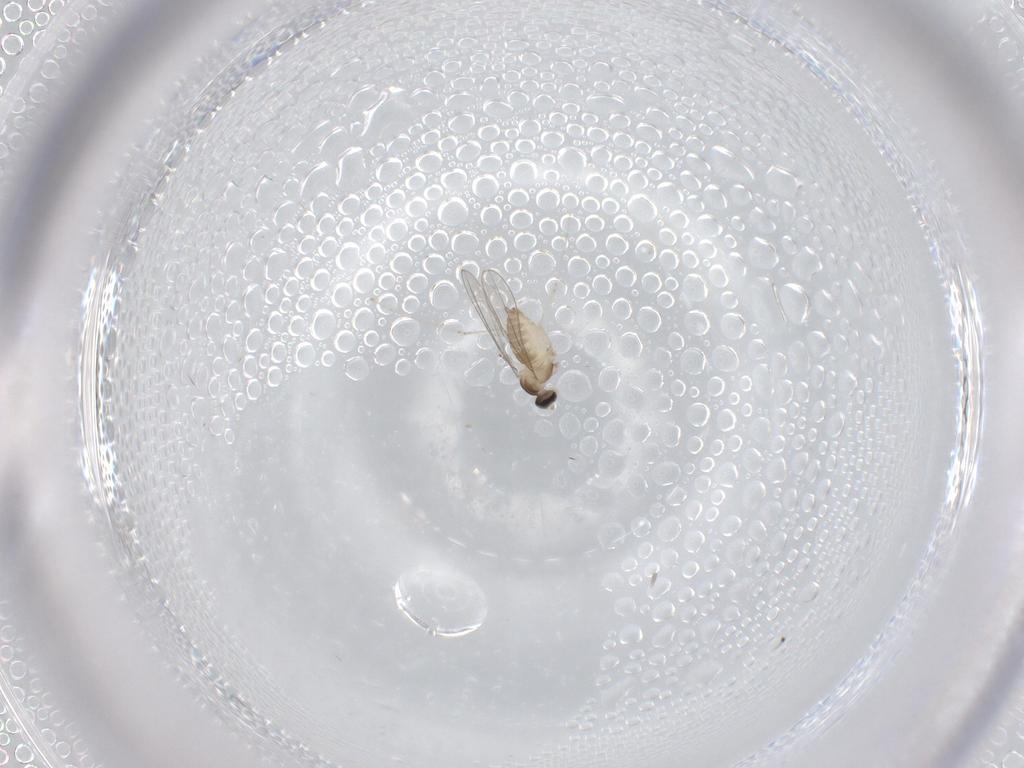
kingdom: Animalia
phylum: Arthropoda
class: Insecta
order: Diptera
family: Cecidomyiidae
